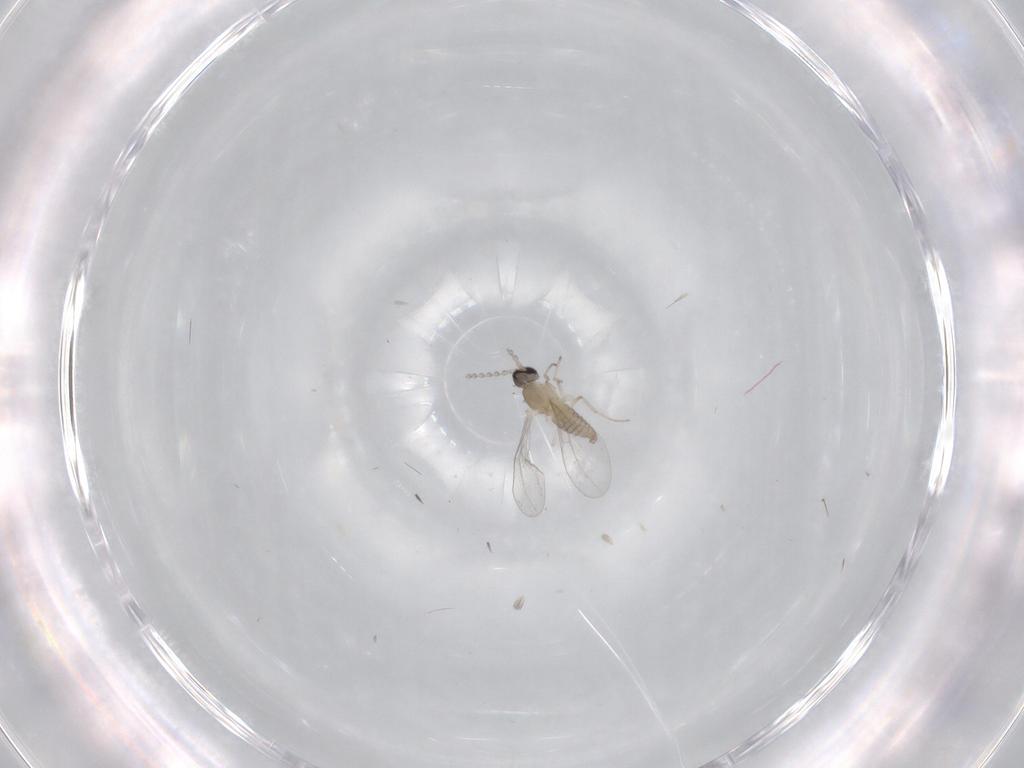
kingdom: Animalia
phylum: Arthropoda
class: Insecta
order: Diptera
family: Cecidomyiidae
